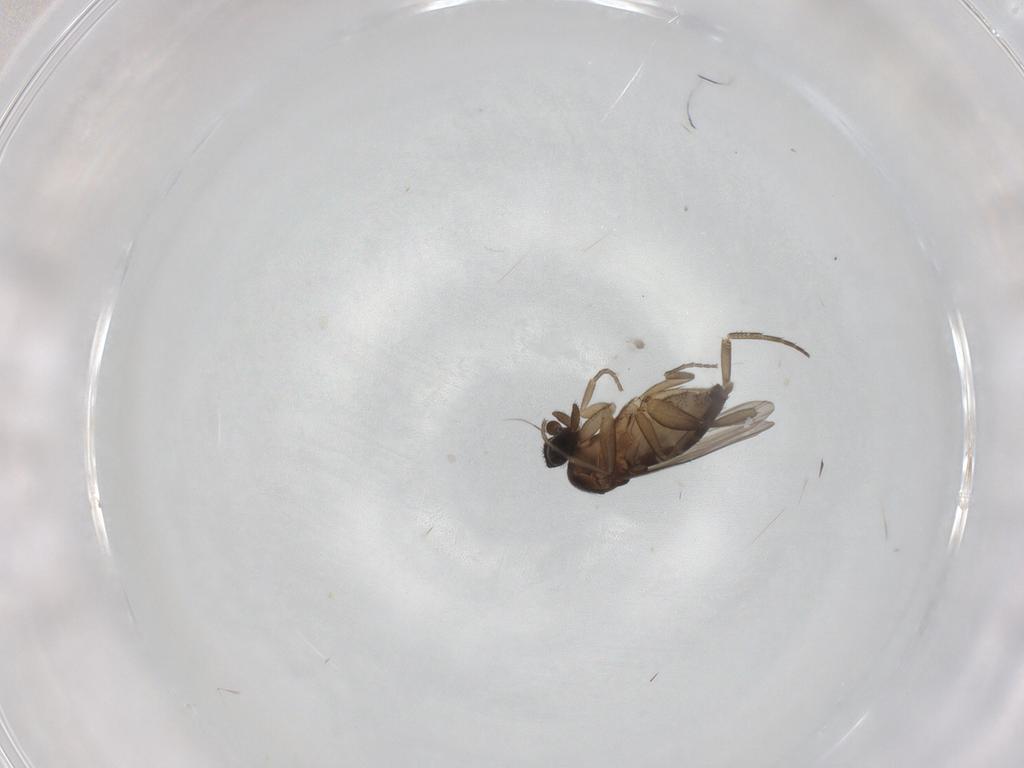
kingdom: Animalia
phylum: Arthropoda
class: Insecta
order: Diptera
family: Phoridae
